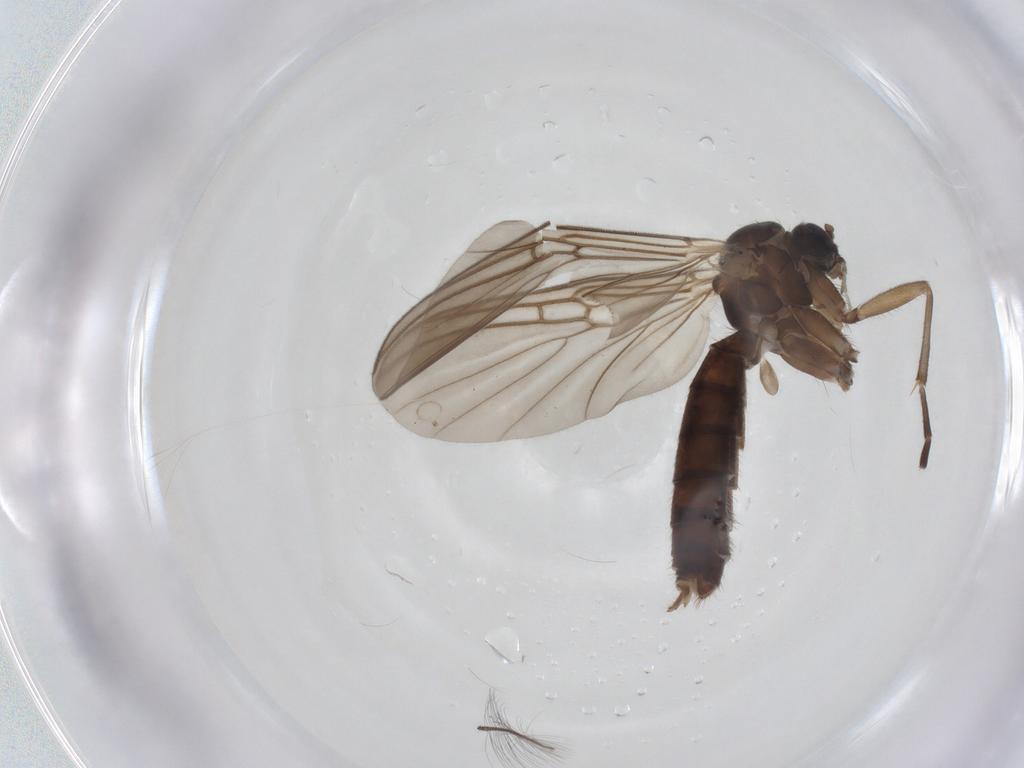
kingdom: Animalia
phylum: Arthropoda
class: Insecta
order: Diptera
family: Mycetophilidae
